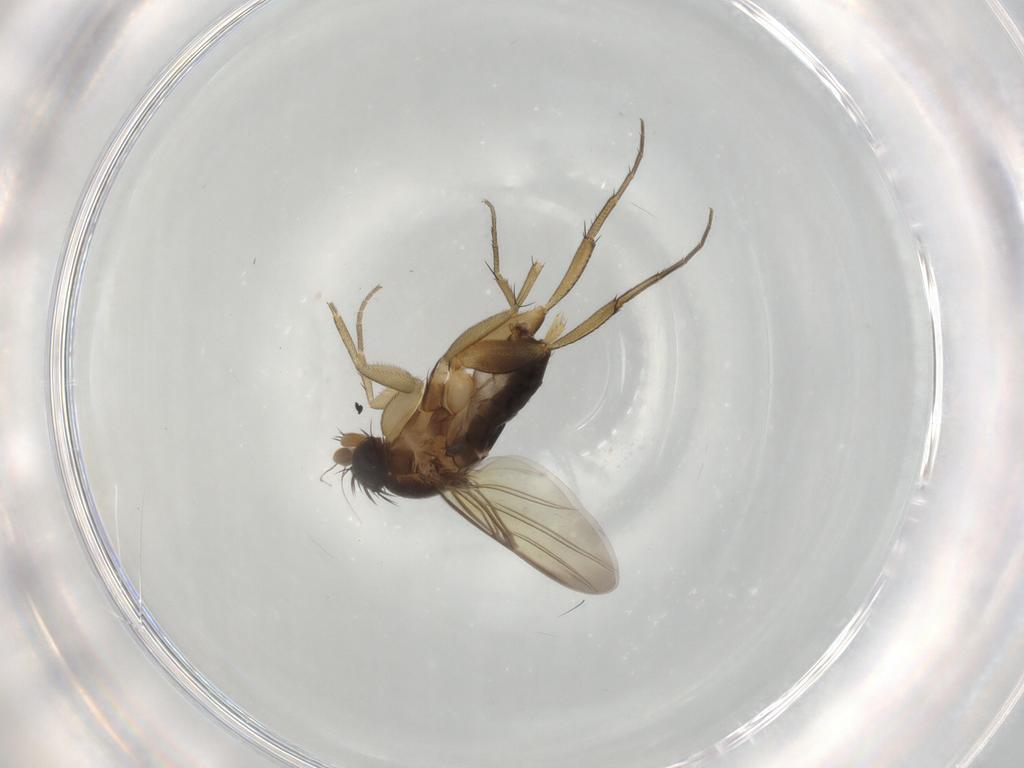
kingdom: Animalia
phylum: Arthropoda
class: Insecta
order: Diptera
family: Phoridae
